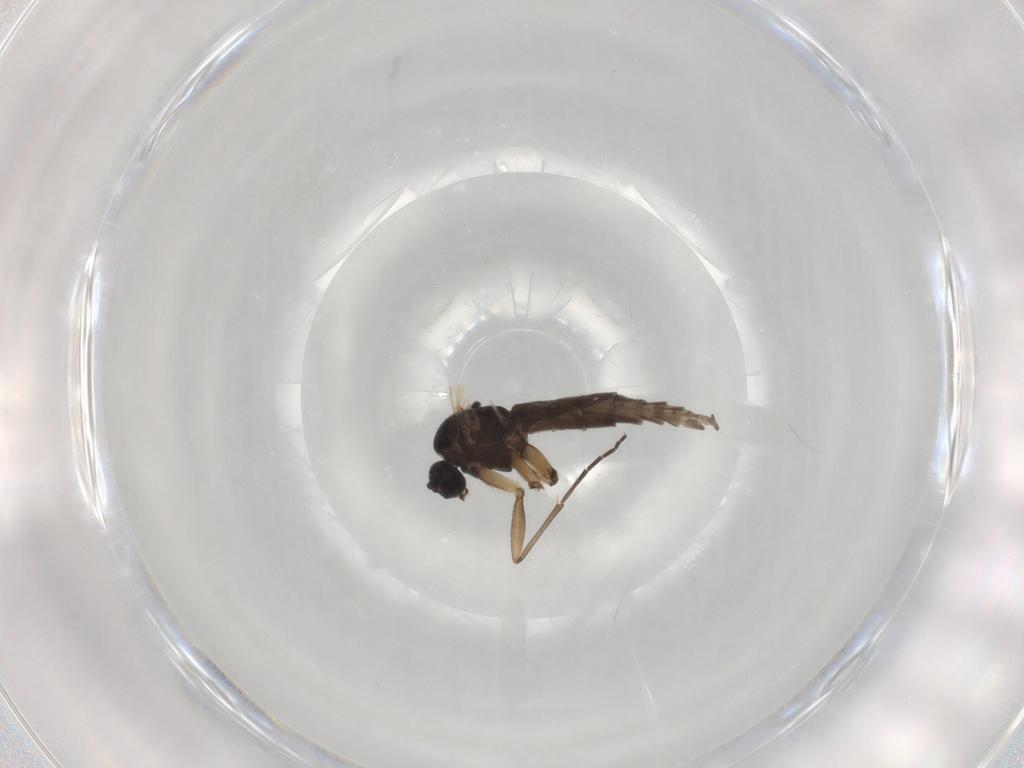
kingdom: Animalia
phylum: Arthropoda
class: Insecta
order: Diptera
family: Sciaridae
